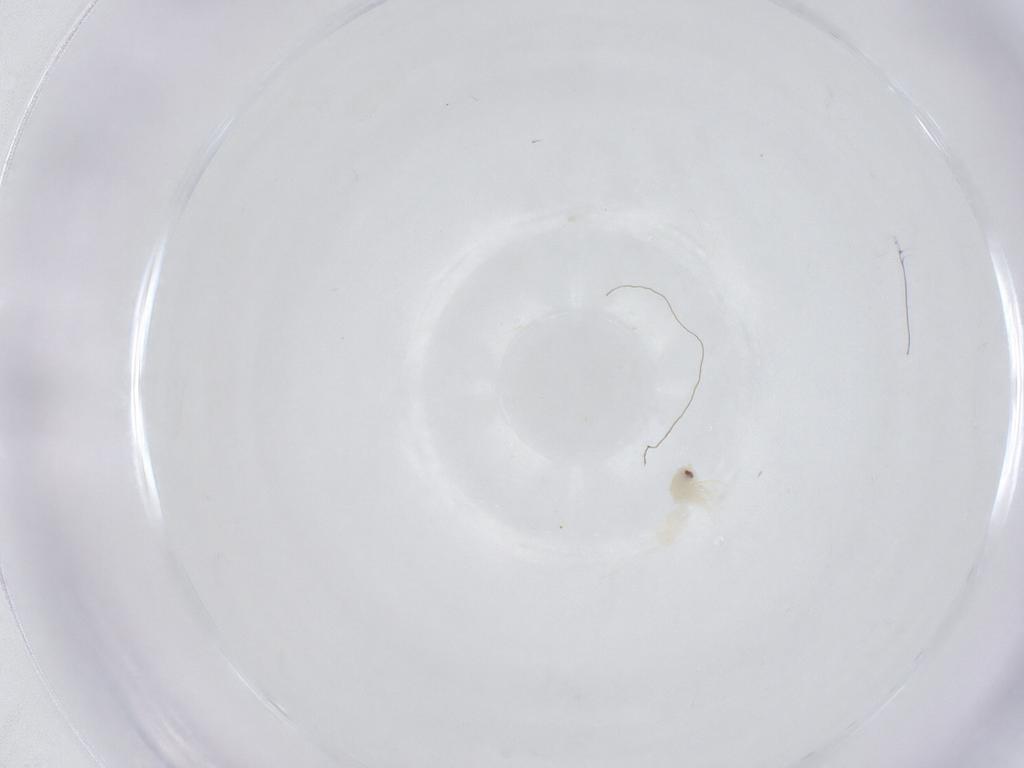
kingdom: Animalia
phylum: Arthropoda
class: Insecta
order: Hemiptera
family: Aleyrodidae
